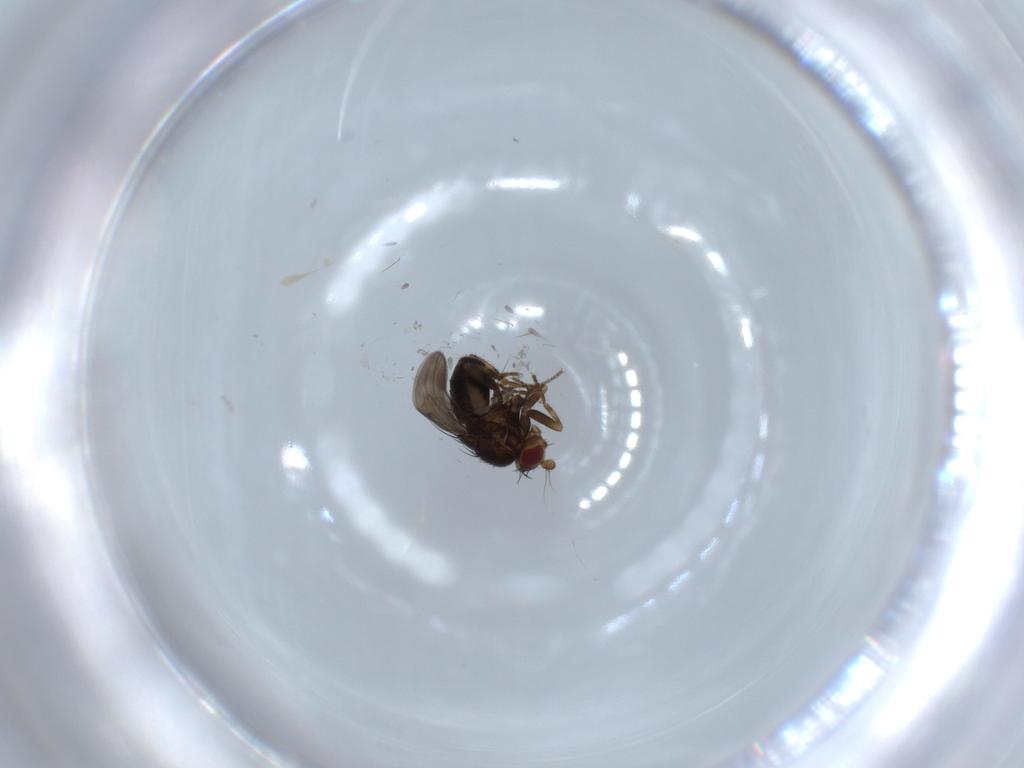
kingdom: Animalia
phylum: Arthropoda
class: Insecta
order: Diptera
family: Sphaeroceridae
